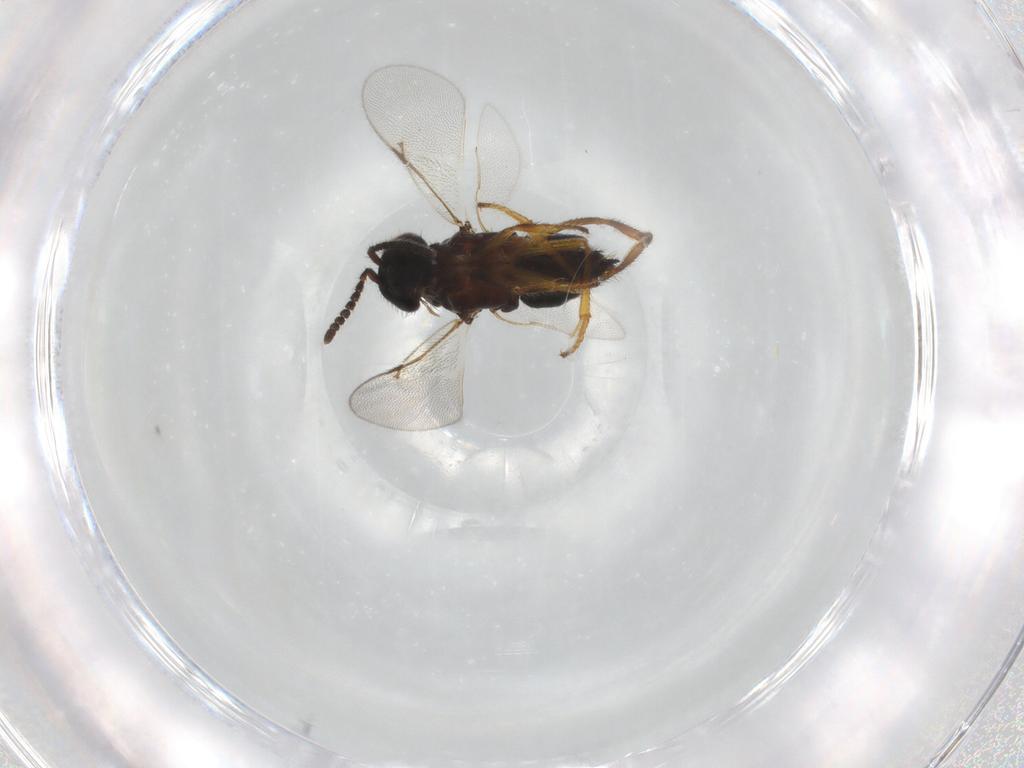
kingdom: Animalia
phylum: Arthropoda
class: Insecta
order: Hymenoptera
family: Encyrtidae
